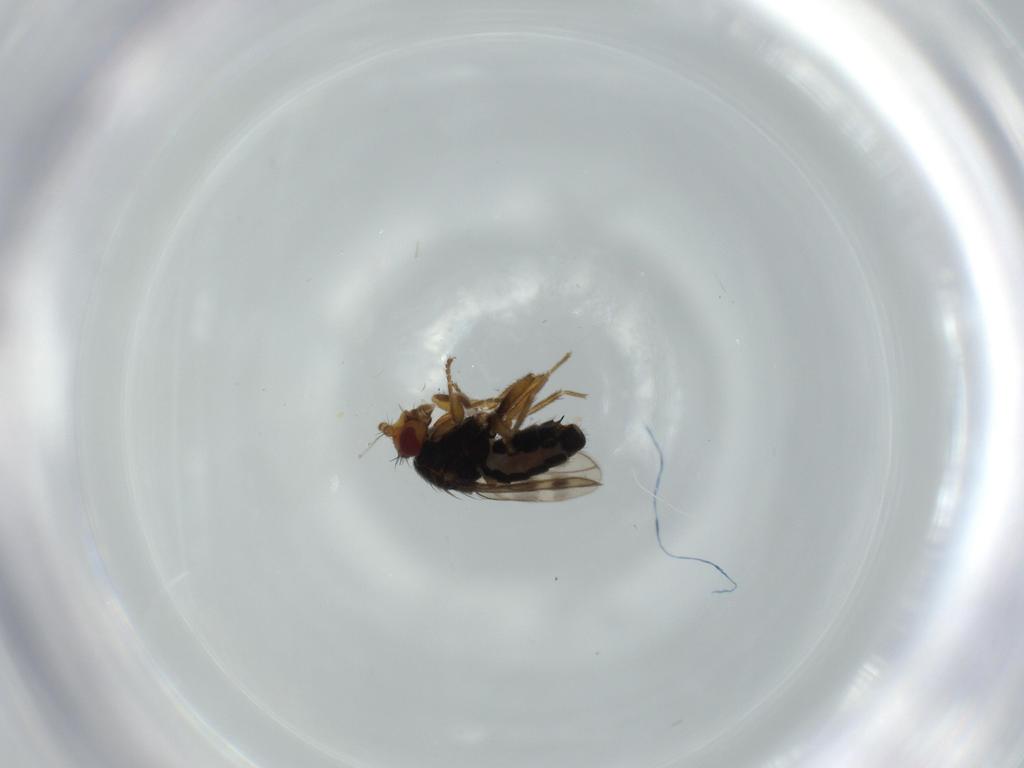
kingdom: Animalia
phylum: Arthropoda
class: Insecta
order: Diptera
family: Sphaeroceridae
